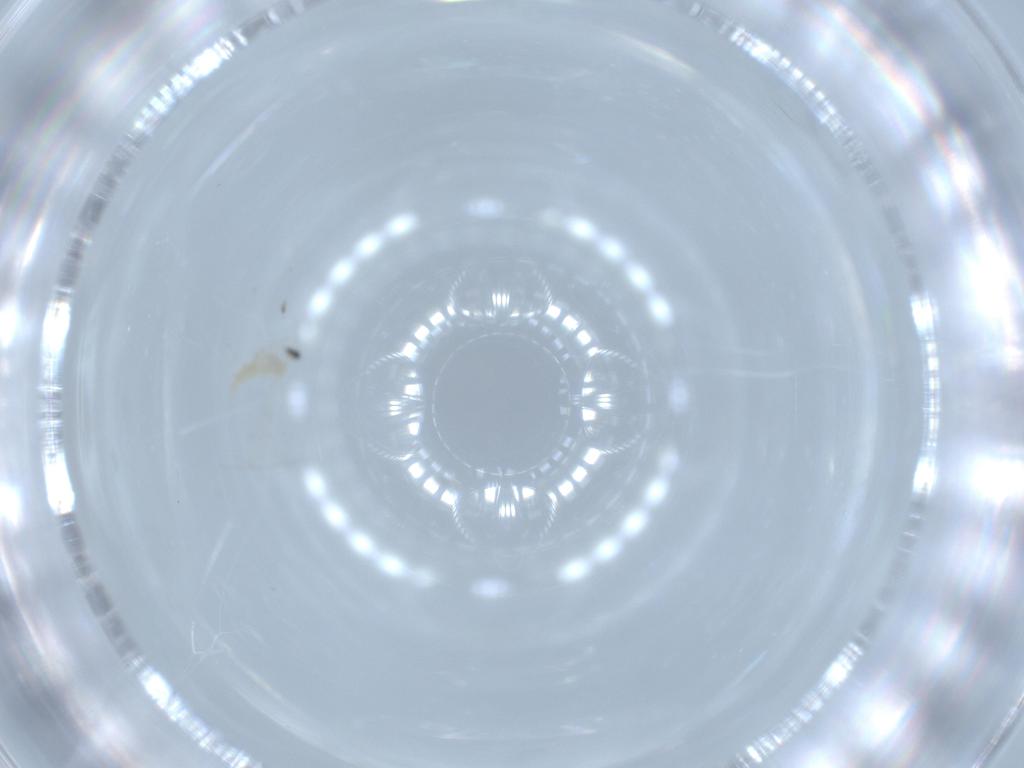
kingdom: Animalia
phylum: Arthropoda
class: Insecta
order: Diptera
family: Cecidomyiidae
